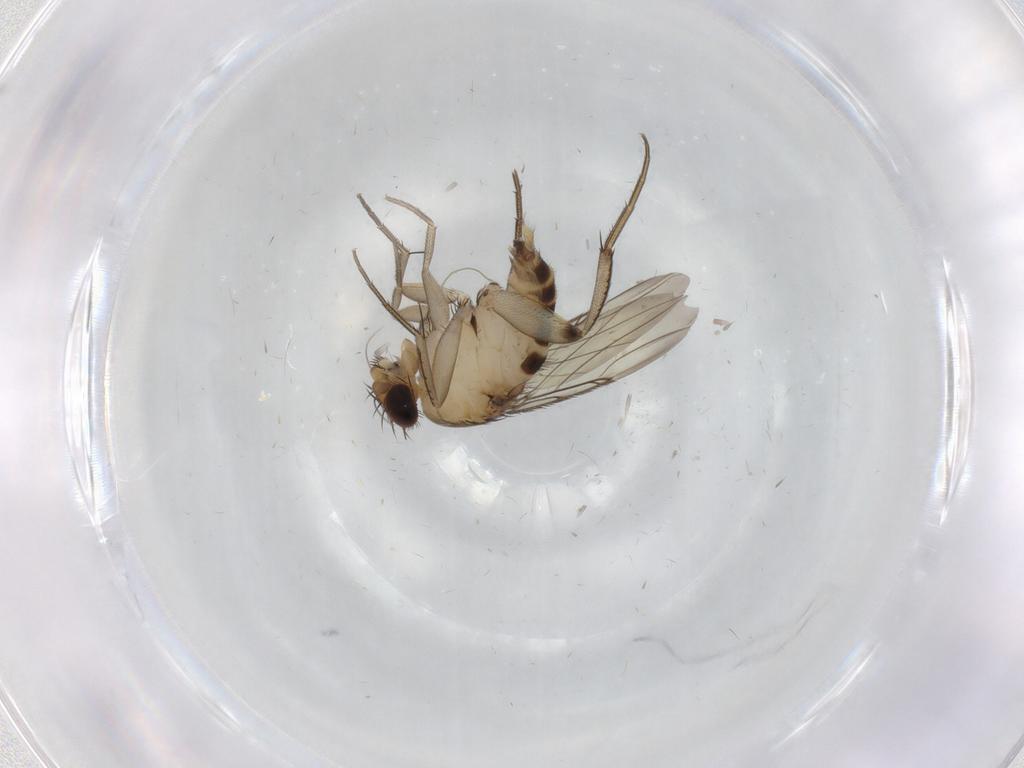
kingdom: Animalia
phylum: Arthropoda
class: Insecta
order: Diptera
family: Phoridae
